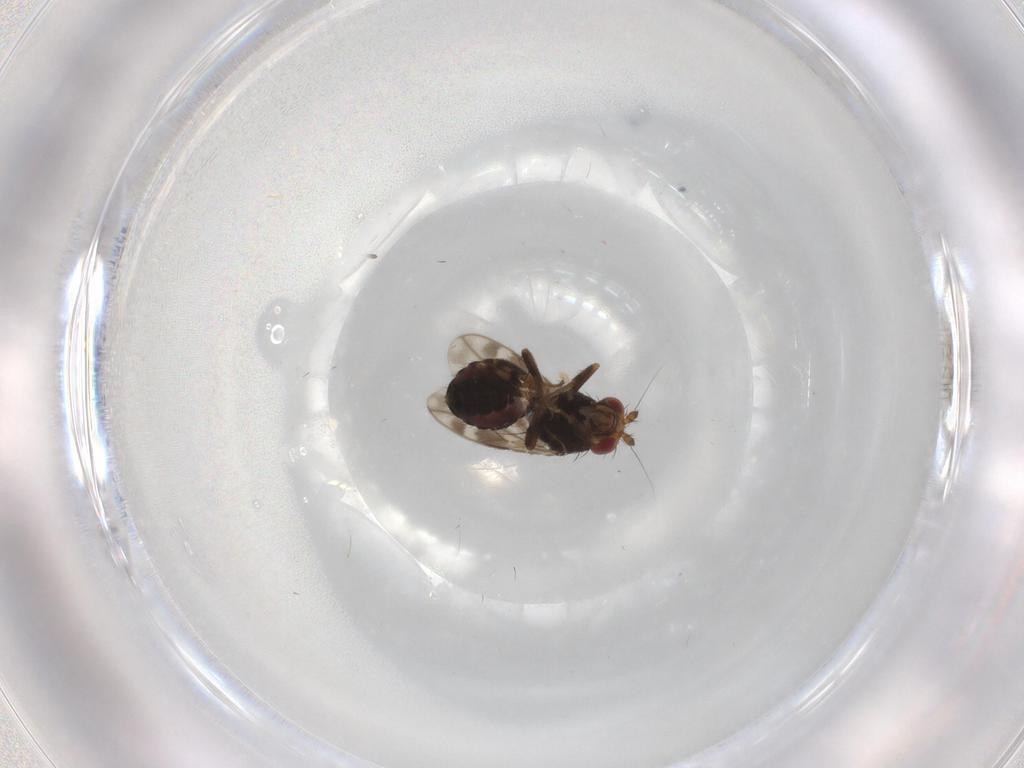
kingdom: Animalia
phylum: Arthropoda
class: Insecta
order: Diptera
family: Sphaeroceridae
